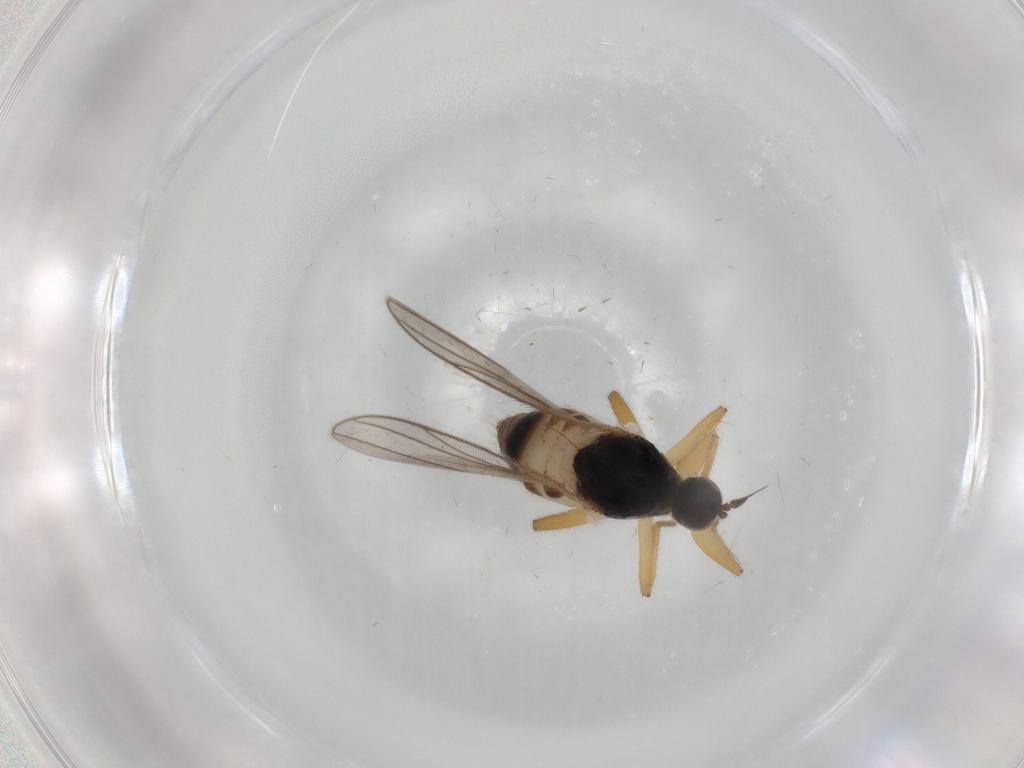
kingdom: Animalia
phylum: Arthropoda
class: Insecta
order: Diptera
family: Hybotidae
